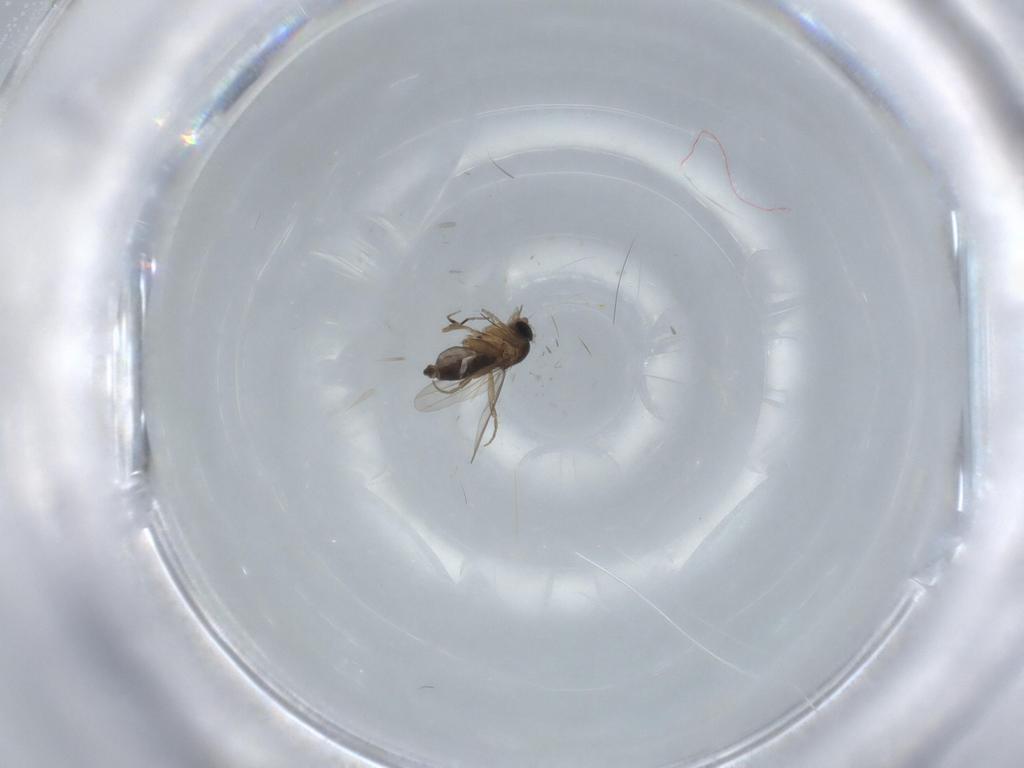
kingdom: Animalia
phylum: Arthropoda
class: Insecta
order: Diptera
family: Phoridae
